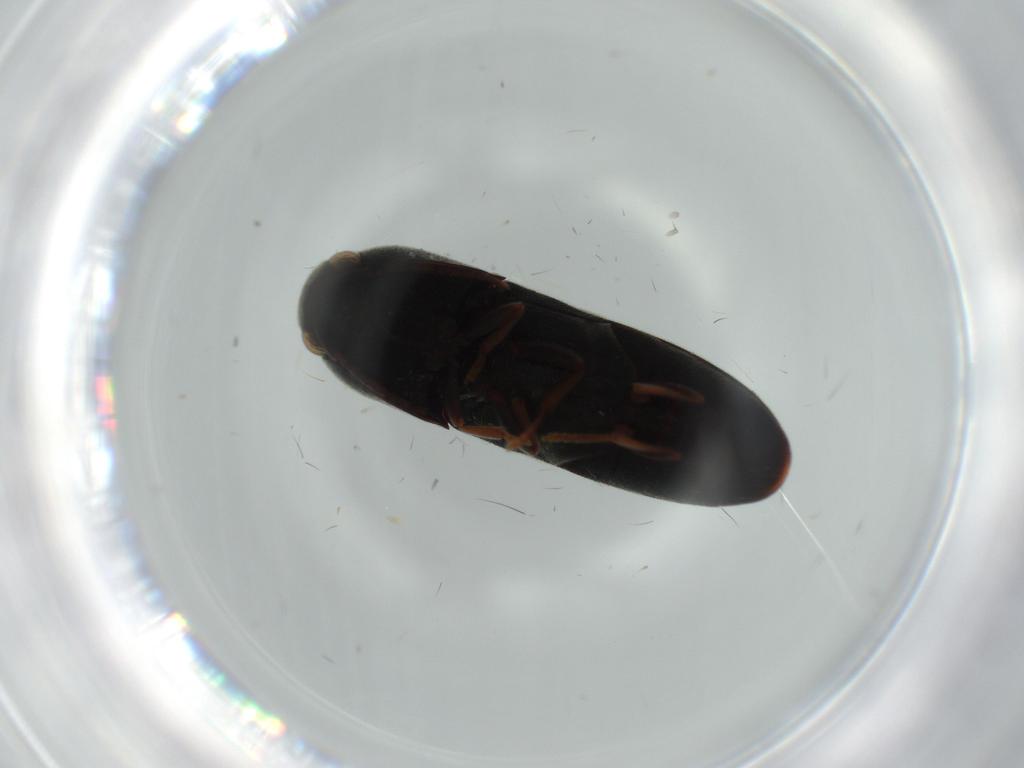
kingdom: Animalia
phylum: Arthropoda
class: Insecta
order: Coleoptera
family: Eucnemidae
